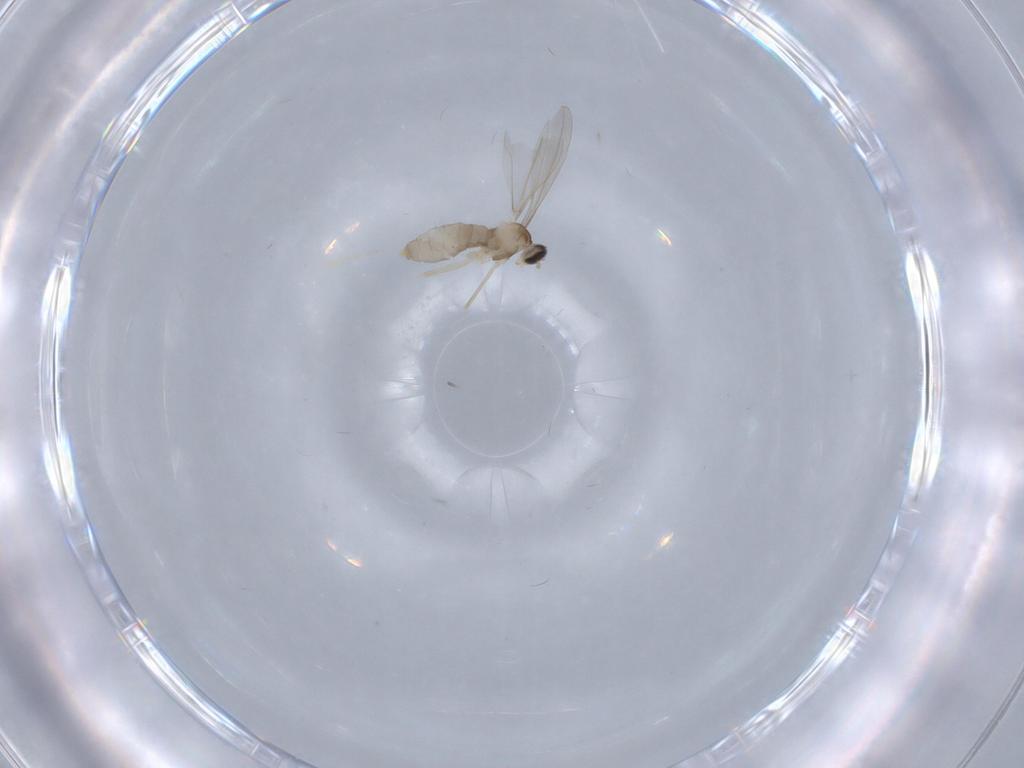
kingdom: Animalia
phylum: Arthropoda
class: Insecta
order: Diptera
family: Cecidomyiidae
